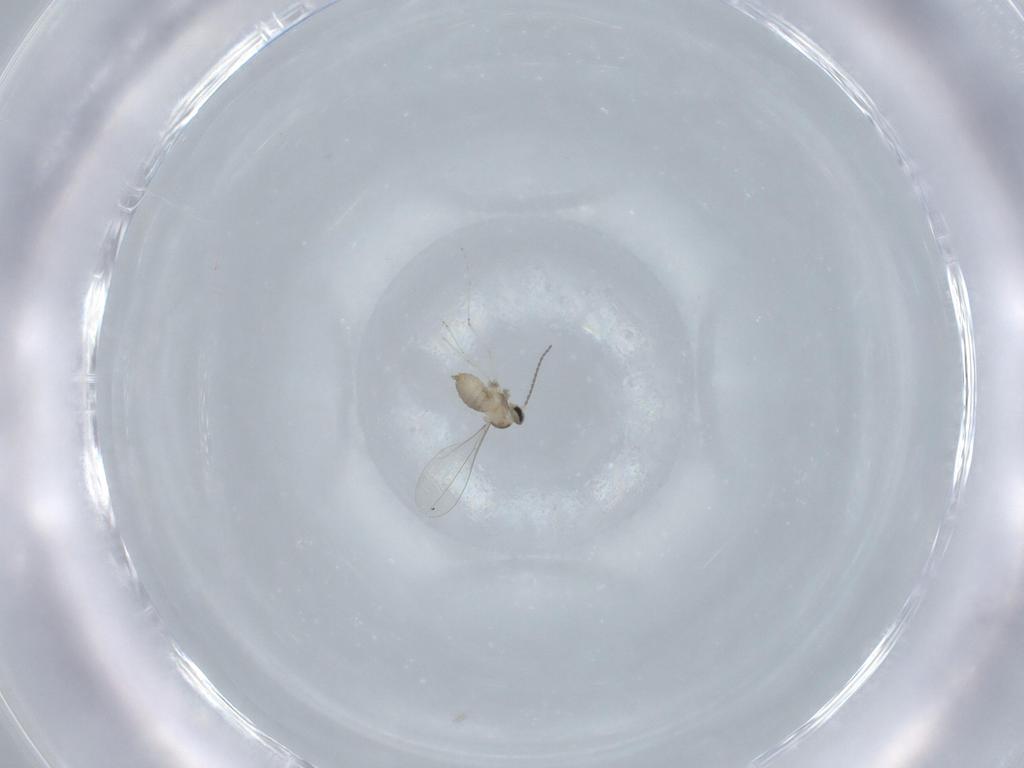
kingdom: Animalia
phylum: Arthropoda
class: Insecta
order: Diptera
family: Cecidomyiidae
